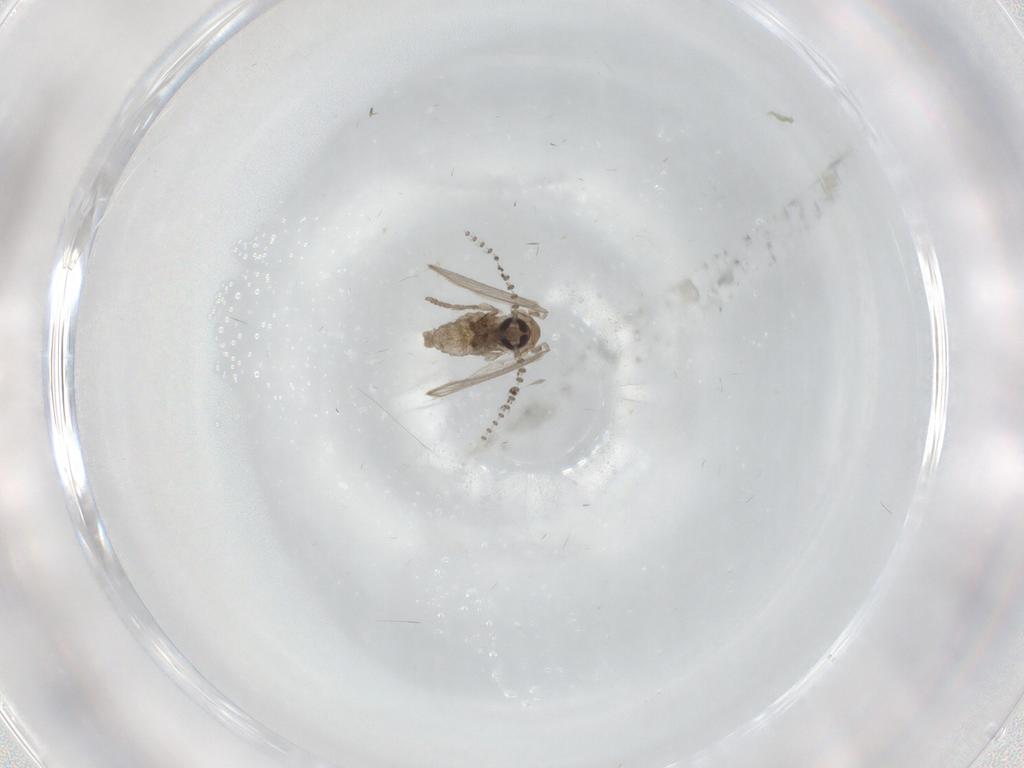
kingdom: Animalia
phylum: Arthropoda
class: Insecta
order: Diptera
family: Psychodidae
